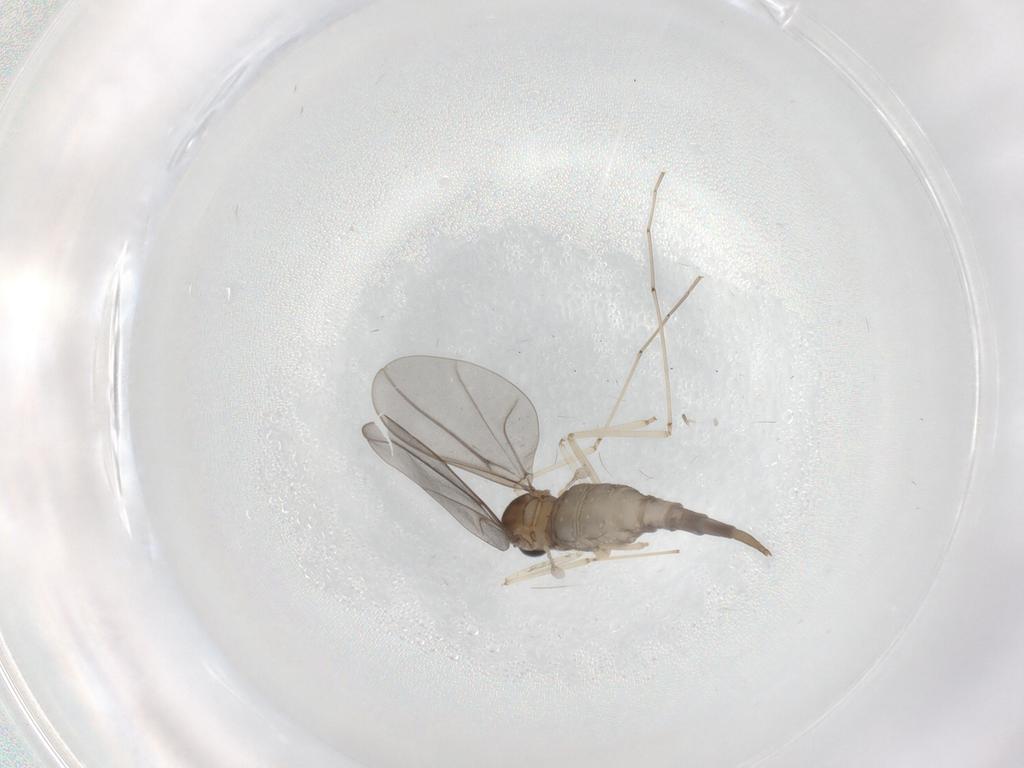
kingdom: Animalia
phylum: Arthropoda
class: Insecta
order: Diptera
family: Cecidomyiidae
